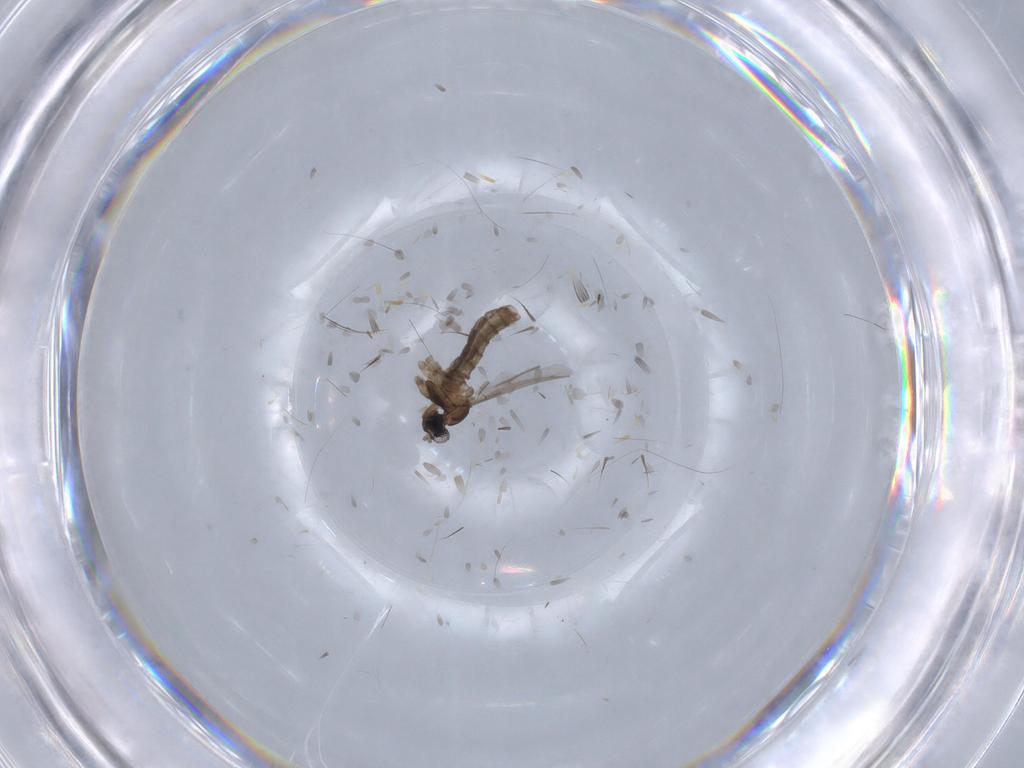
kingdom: Animalia
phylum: Arthropoda
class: Insecta
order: Diptera
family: Cecidomyiidae
